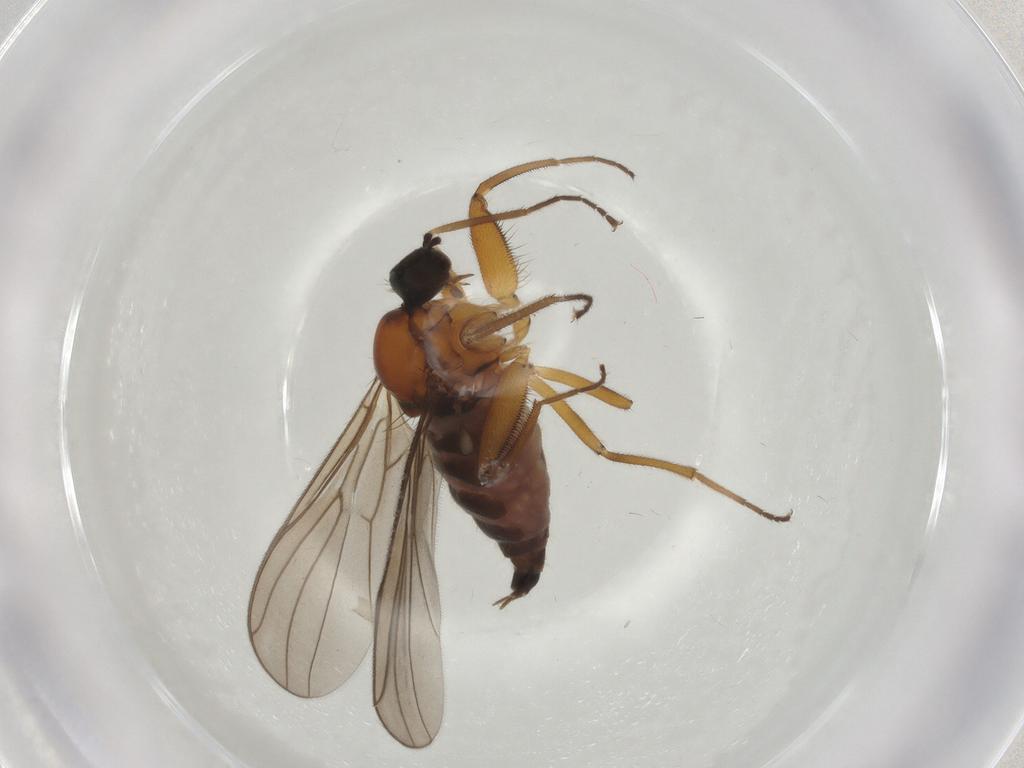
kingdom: Animalia
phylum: Arthropoda
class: Insecta
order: Diptera
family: Hybotidae
